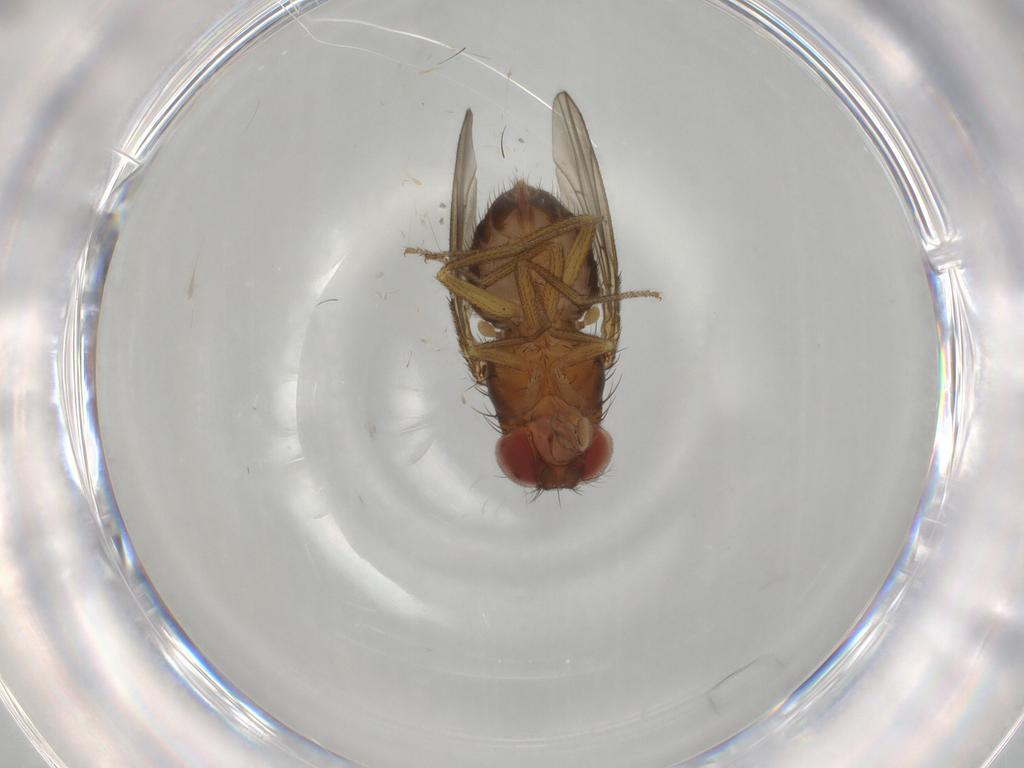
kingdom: Animalia
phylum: Arthropoda
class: Insecta
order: Diptera
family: Drosophilidae
